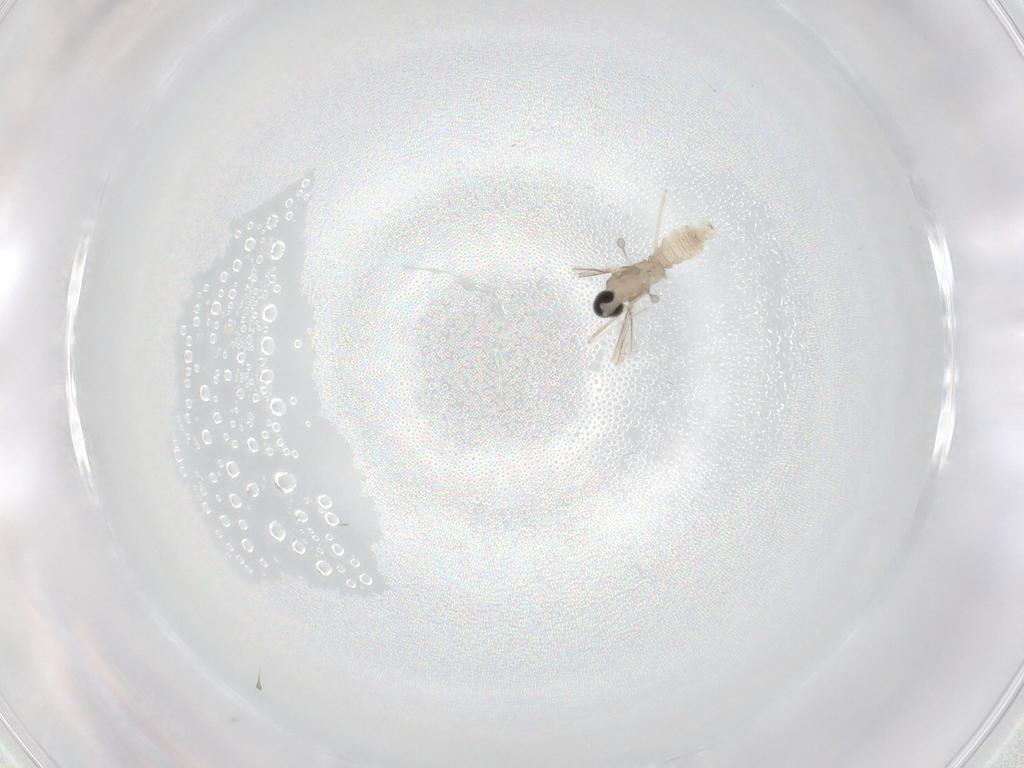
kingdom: Animalia
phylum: Arthropoda
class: Insecta
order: Diptera
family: Cecidomyiidae
